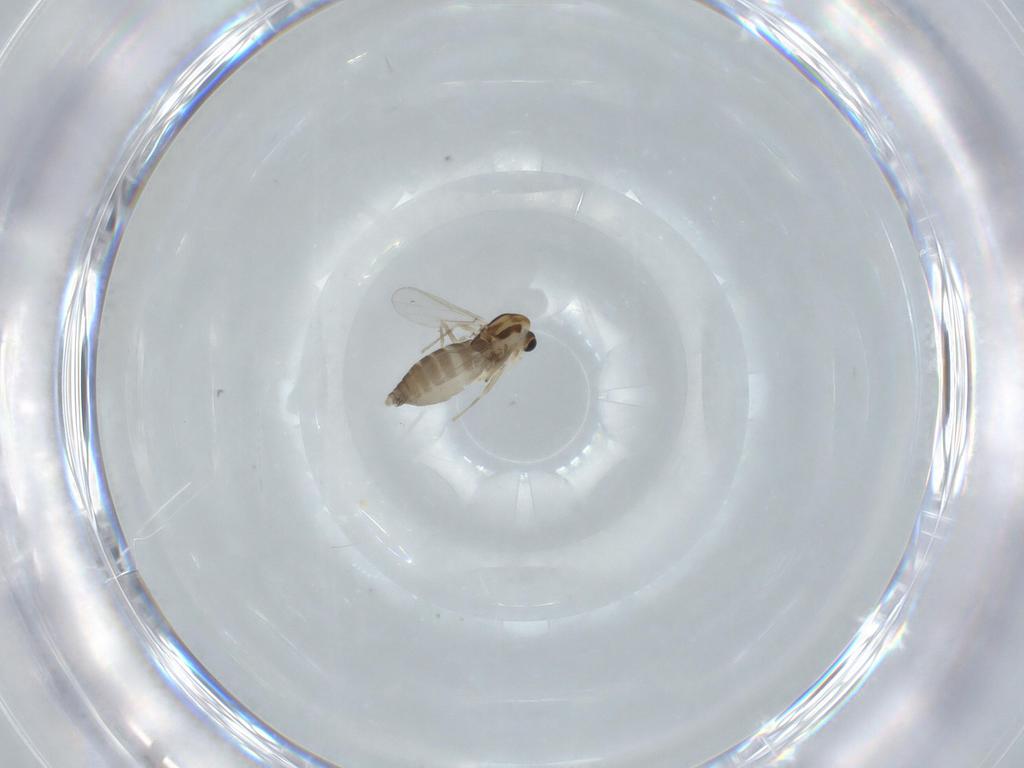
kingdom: Animalia
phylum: Arthropoda
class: Insecta
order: Diptera
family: Chironomidae
